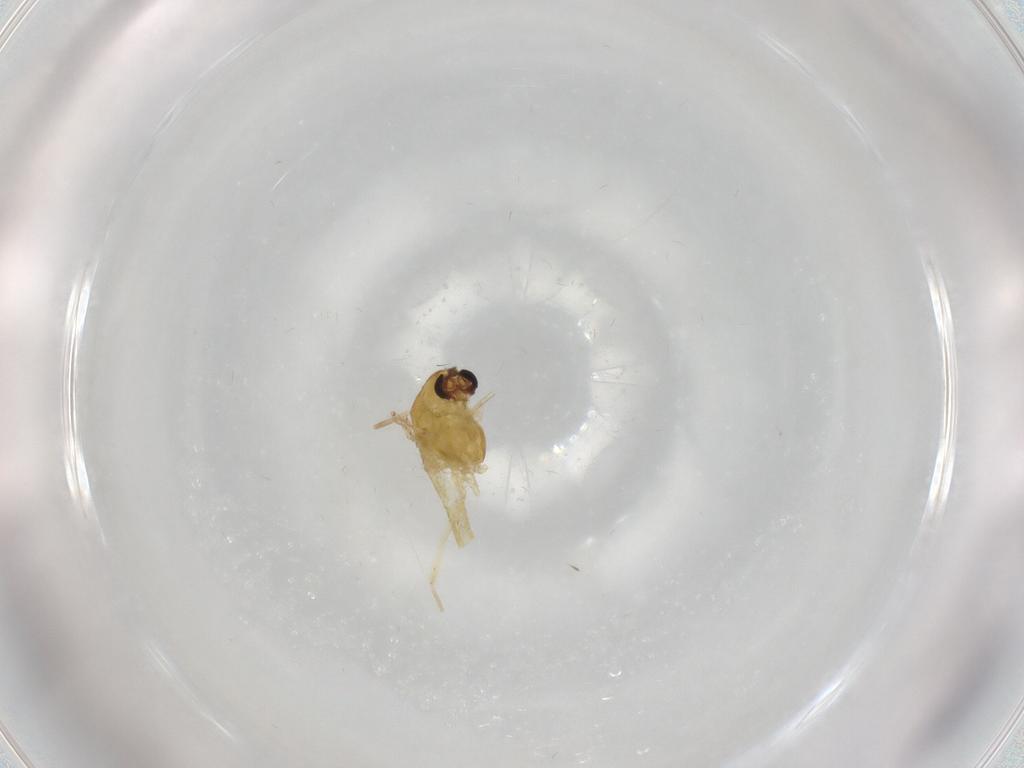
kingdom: Animalia
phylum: Arthropoda
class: Insecta
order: Diptera
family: Chironomidae
